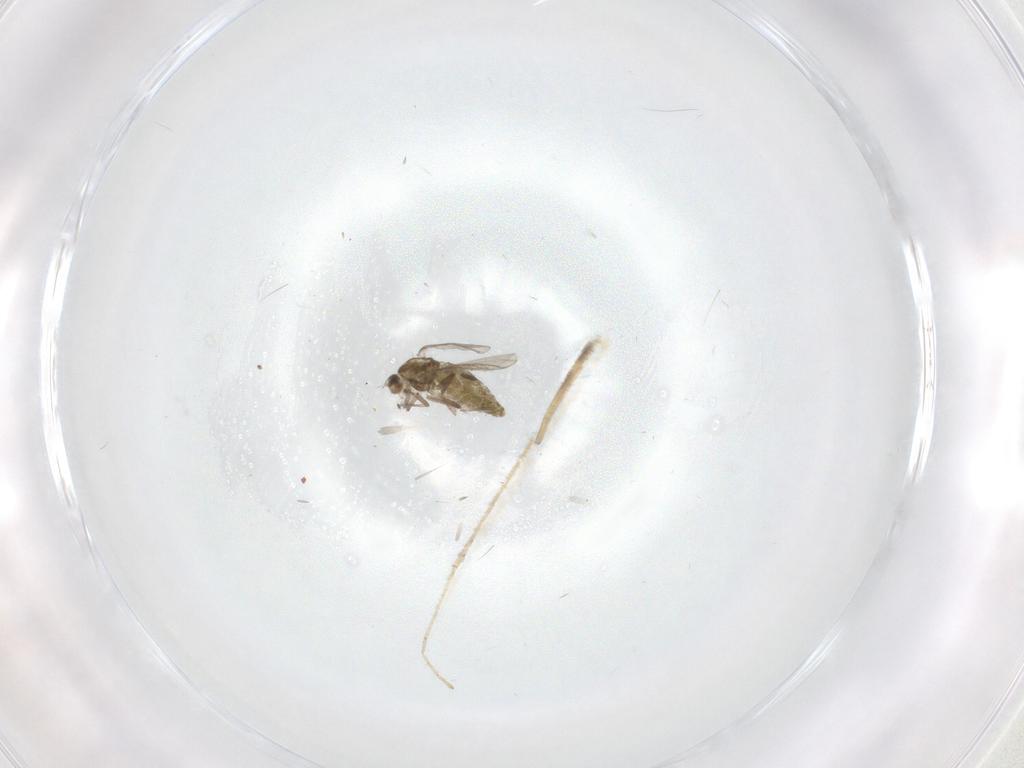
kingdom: Animalia
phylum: Arthropoda
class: Insecta
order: Diptera
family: Limoniidae
